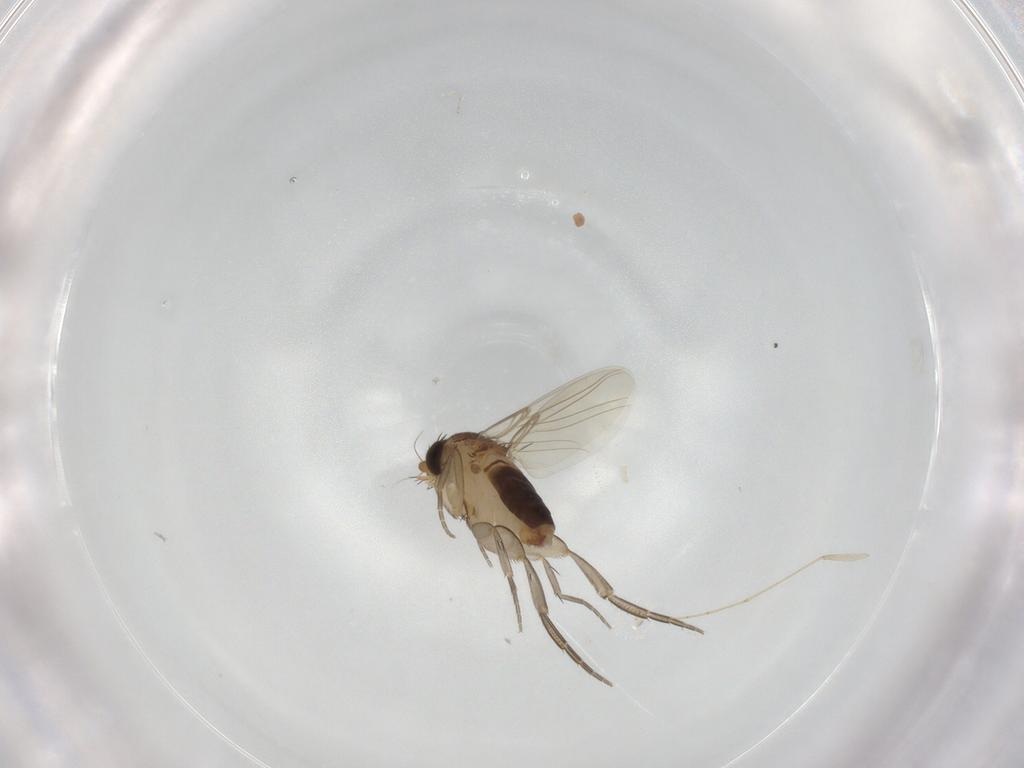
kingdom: Animalia
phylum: Arthropoda
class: Insecta
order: Diptera
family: Phoridae
